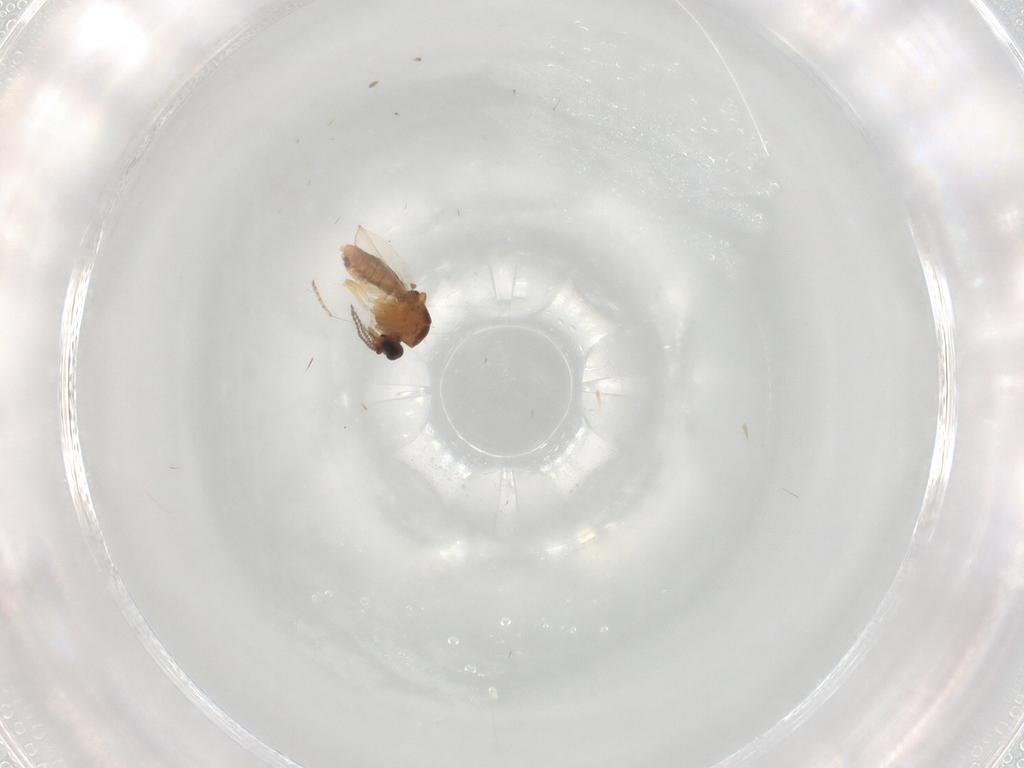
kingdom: Animalia
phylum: Arthropoda
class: Insecta
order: Diptera
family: Ceratopogonidae
